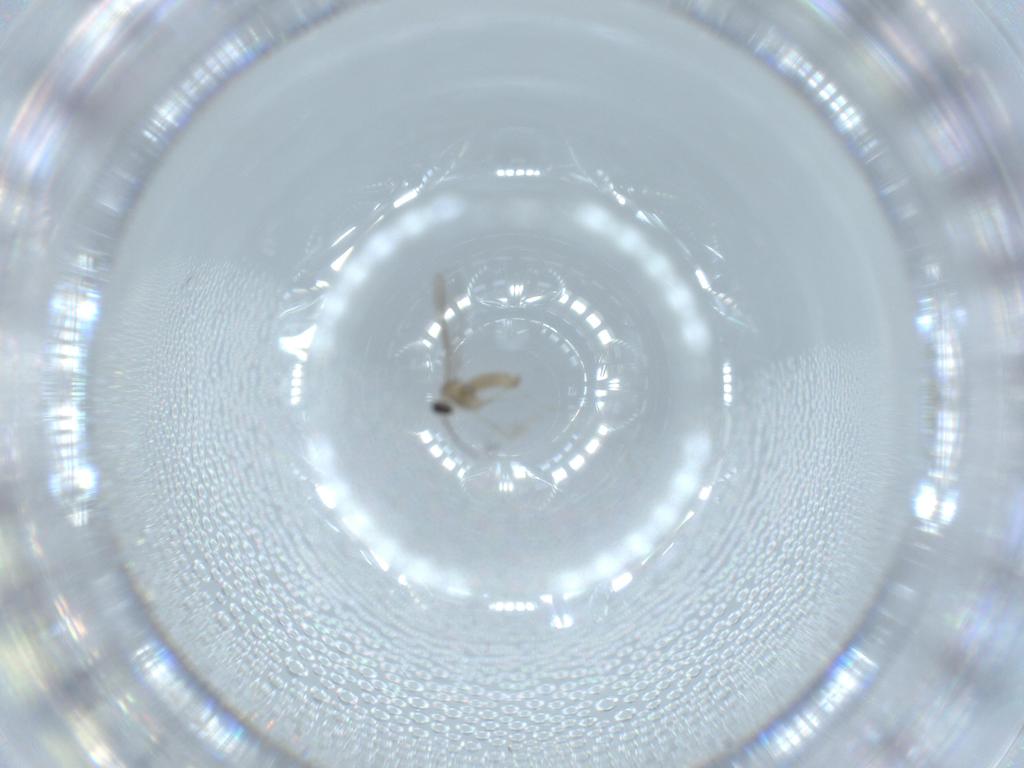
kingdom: Animalia
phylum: Arthropoda
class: Insecta
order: Diptera
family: Cecidomyiidae
